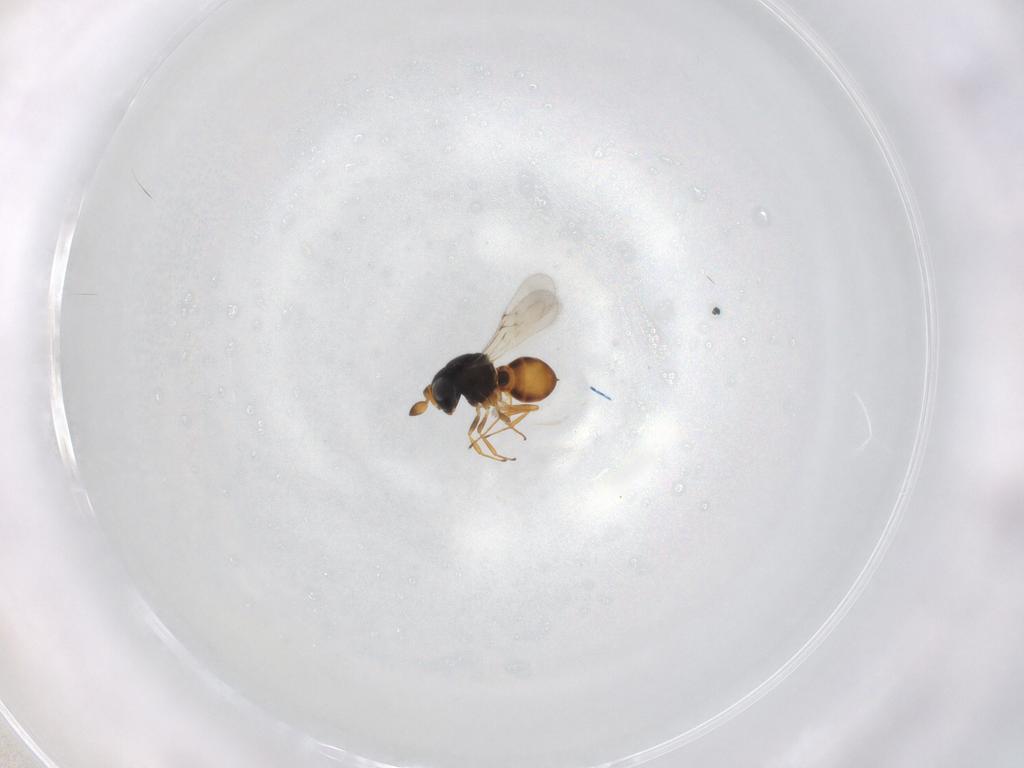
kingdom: Animalia
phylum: Arthropoda
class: Insecta
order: Hymenoptera
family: Scelionidae
